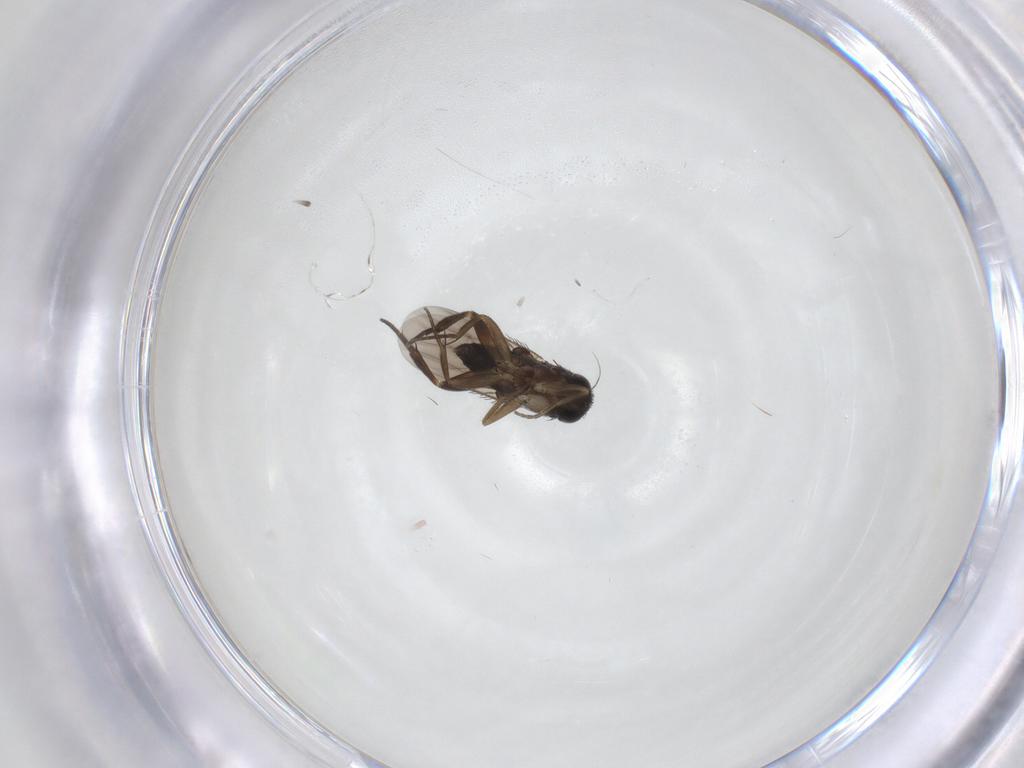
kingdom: Animalia
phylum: Arthropoda
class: Insecta
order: Diptera
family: Phoridae
